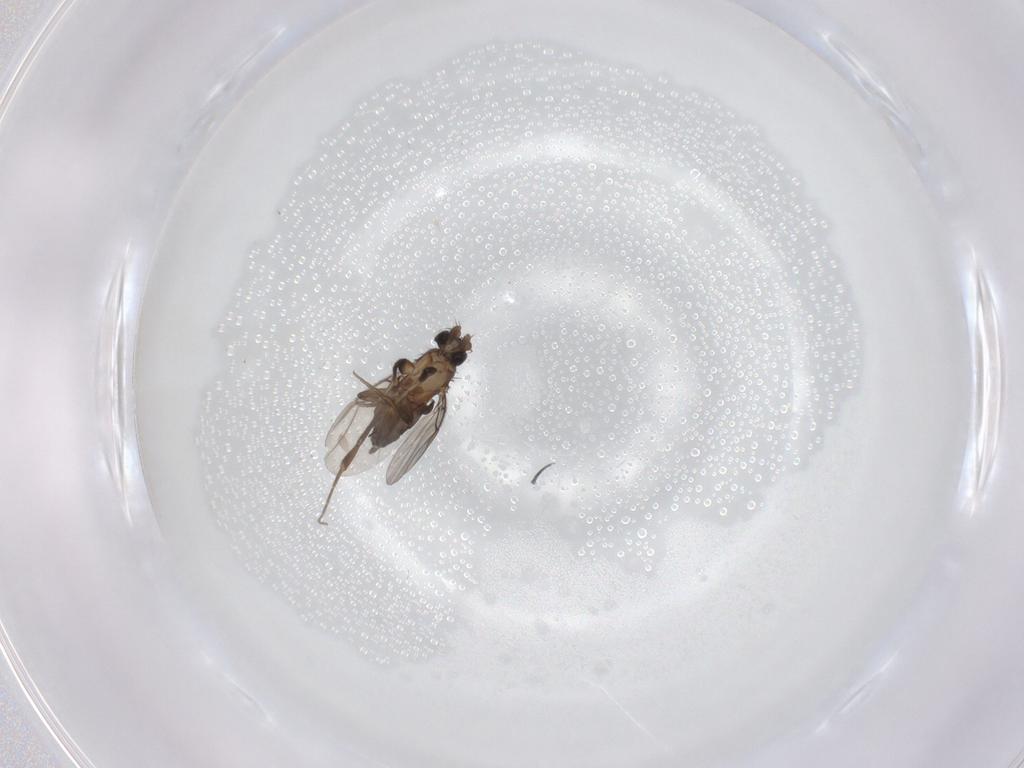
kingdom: Animalia
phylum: Arthropoda
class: Insecta
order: Diptera
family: Phoridae
